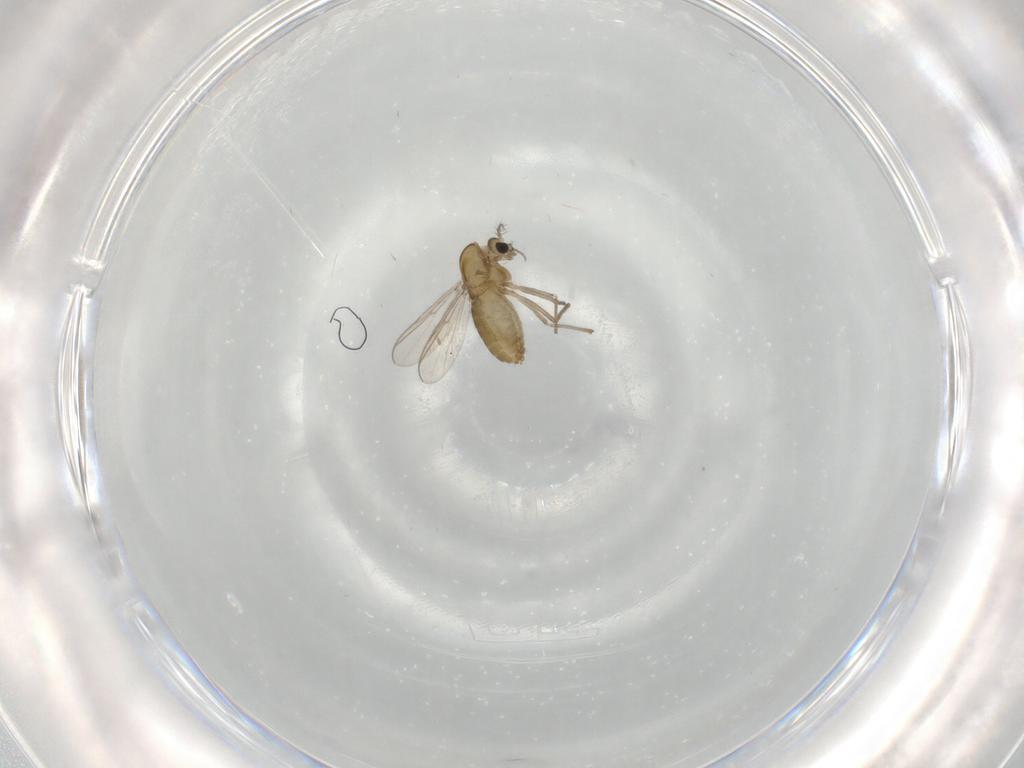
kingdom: Animalia
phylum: Arthropoda
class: Insecta
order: Diptera
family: Chironomidae
